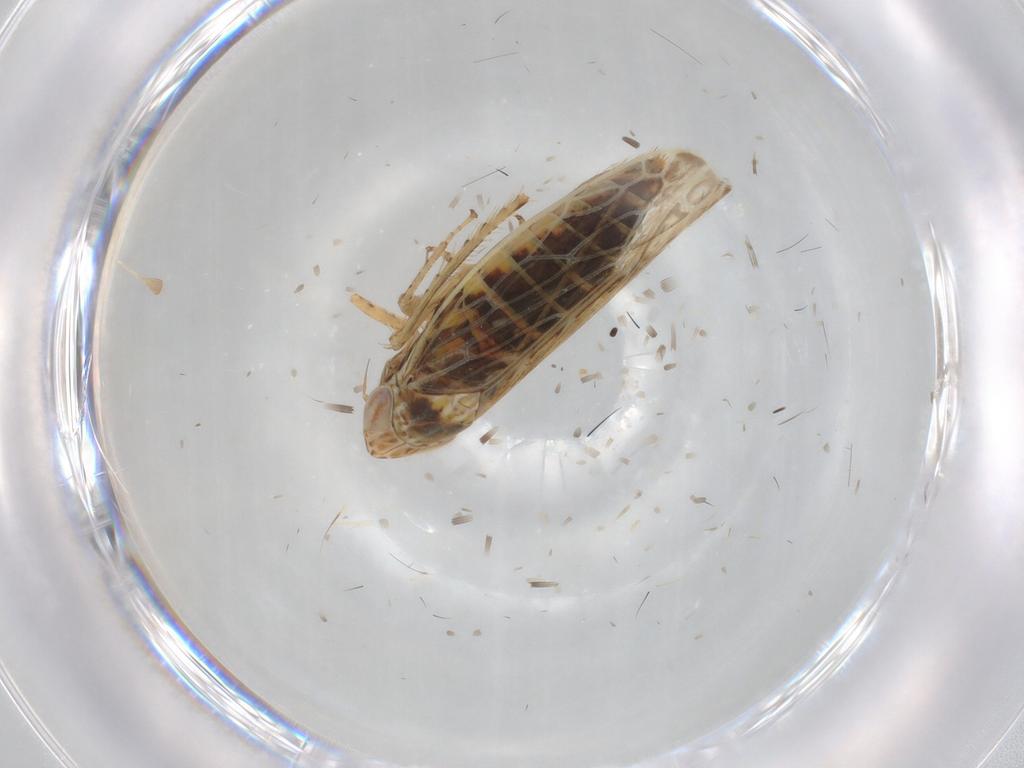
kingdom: Animalia
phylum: Arthropoda
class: Insecta
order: Hemiptera
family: Cicadellidae
